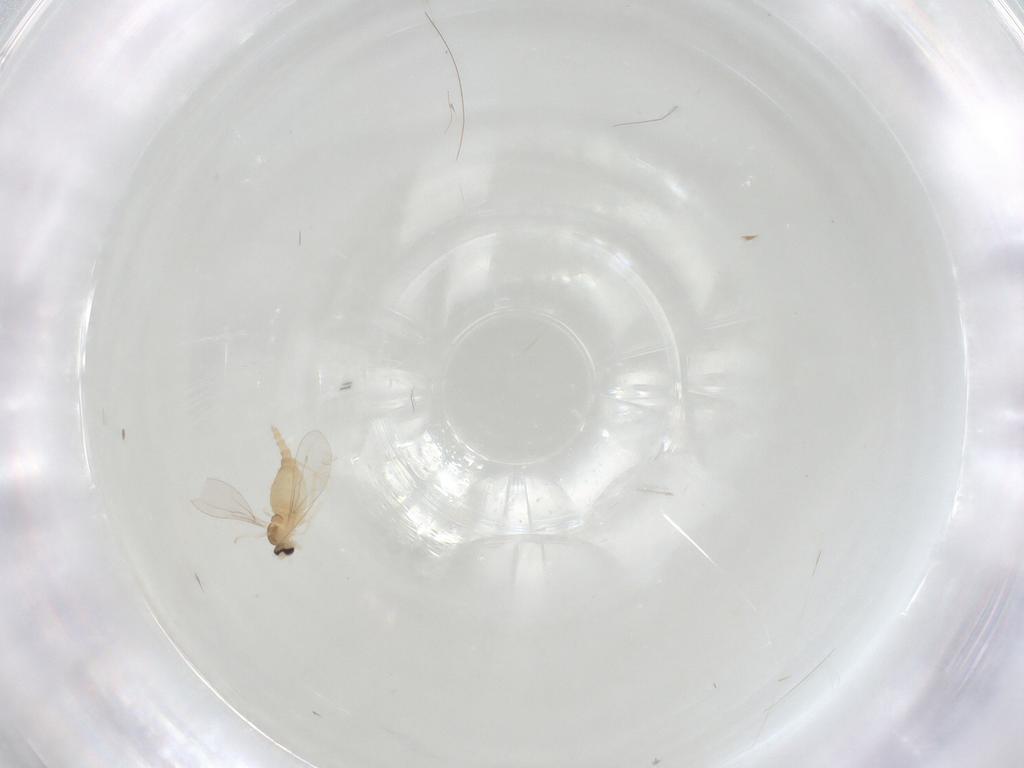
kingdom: Animalia
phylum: Arthropoda
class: Insecta
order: Diptera
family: Cecidomyiidae
